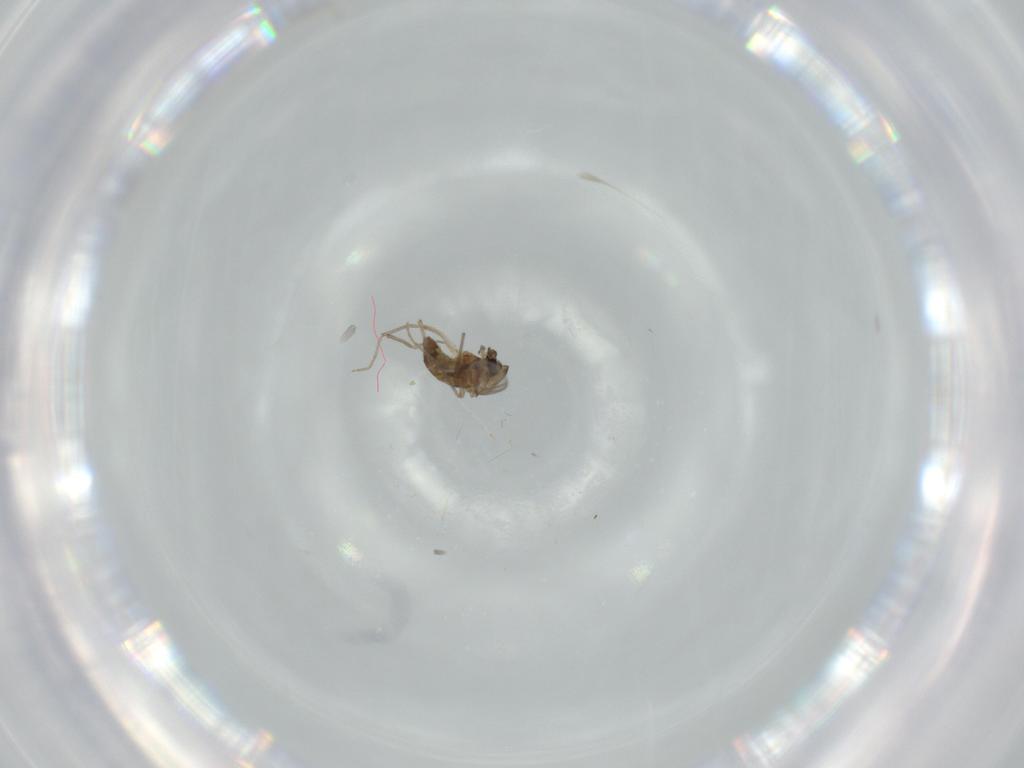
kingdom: Animalia
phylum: Arthropoda
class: Insecta
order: Diptera
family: Chironomidae
